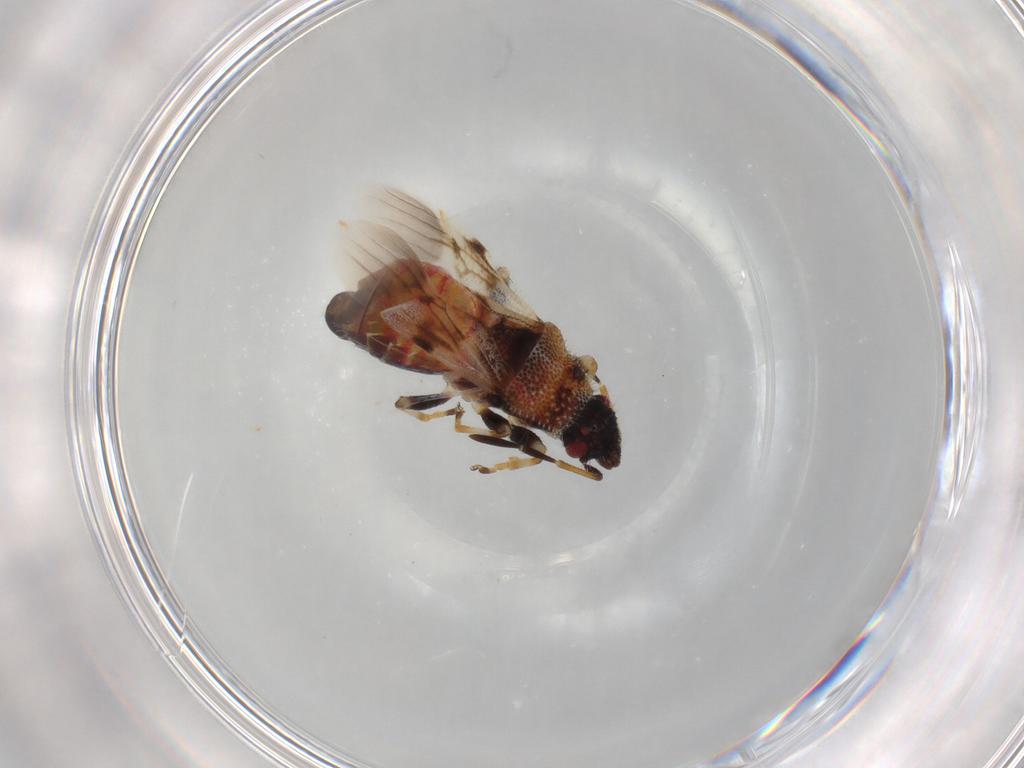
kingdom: Animalia
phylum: Arthropoda
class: Insecta
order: Hemiptera
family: Oxycarenidae
